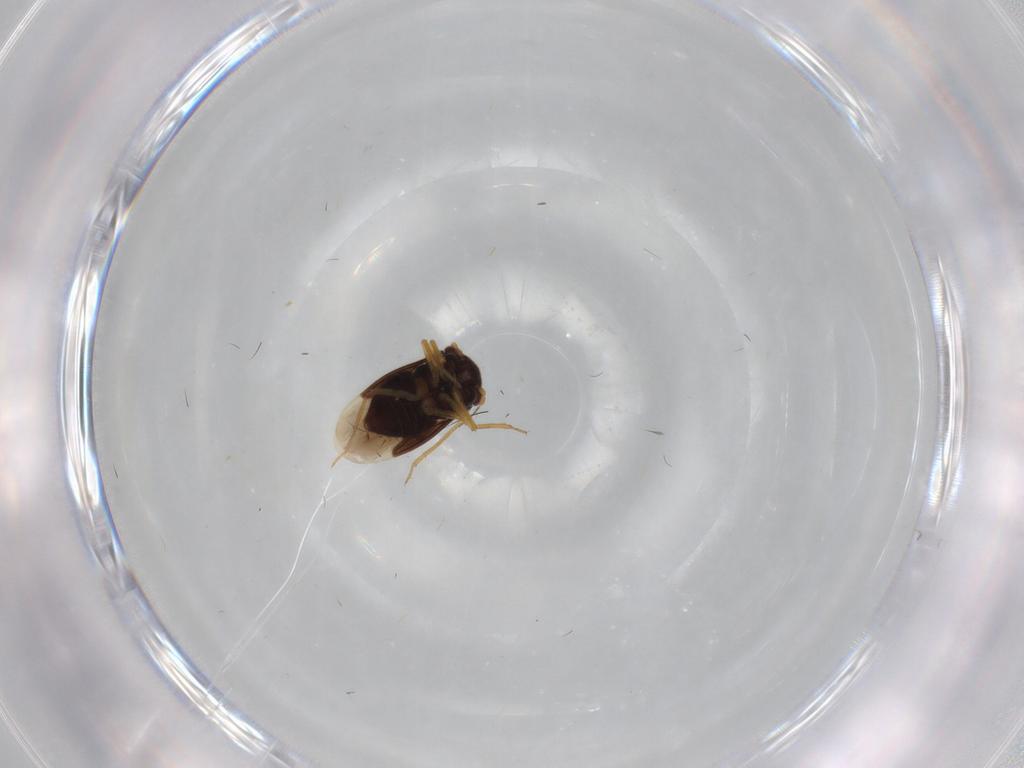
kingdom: Animalia
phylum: Arthropoda
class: Insecta
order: Hemiptera
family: Schizopteridae
